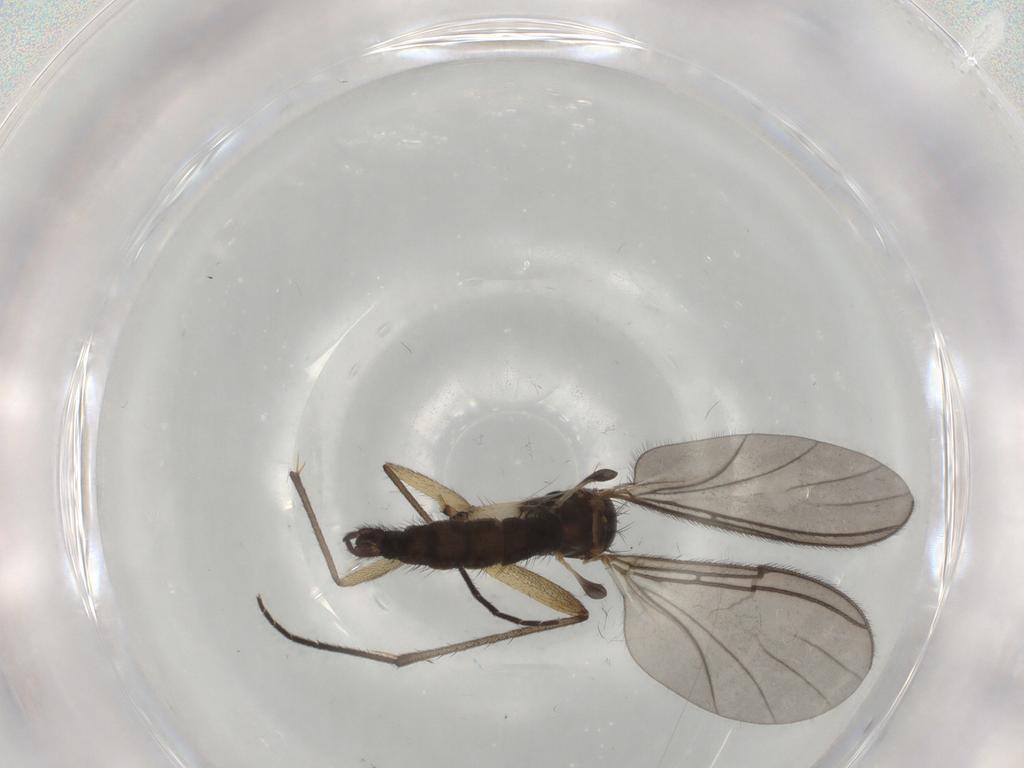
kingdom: Animalia
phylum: Arthropoda
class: Insecta
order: Diptera
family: Sciaridae
